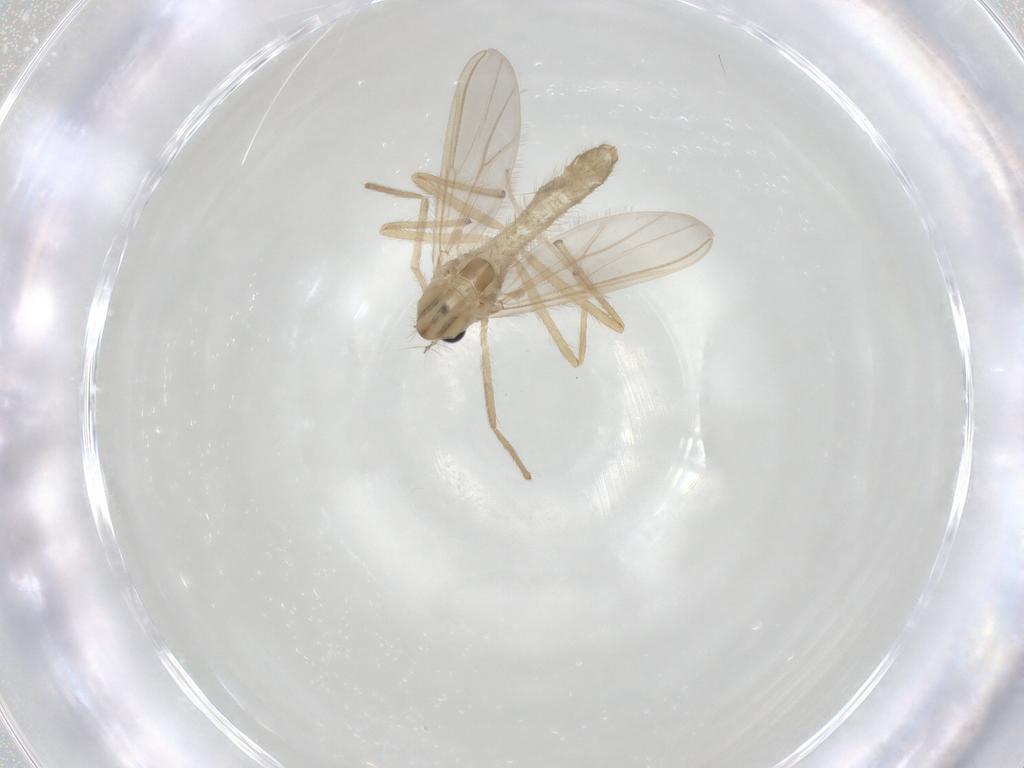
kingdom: Animalia
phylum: Arthropoda
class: Insecta
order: Diptera
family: Chironomidae
